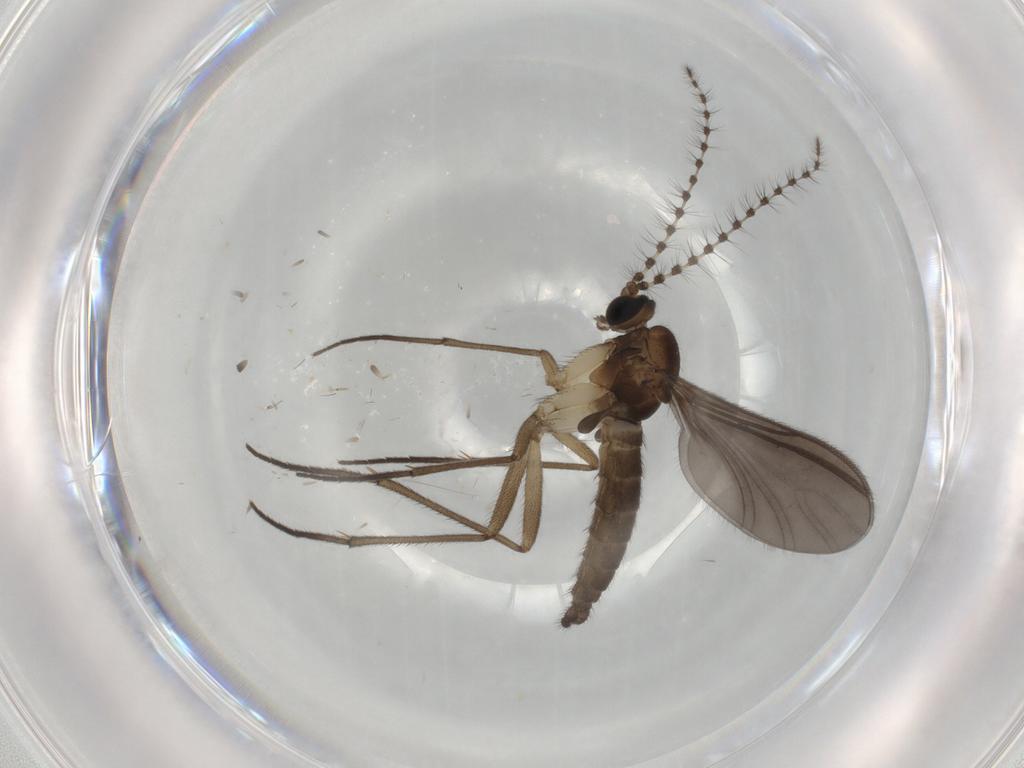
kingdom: Animalia
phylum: Arthropoda
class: Insecta
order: Diptera
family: Sciaridae
